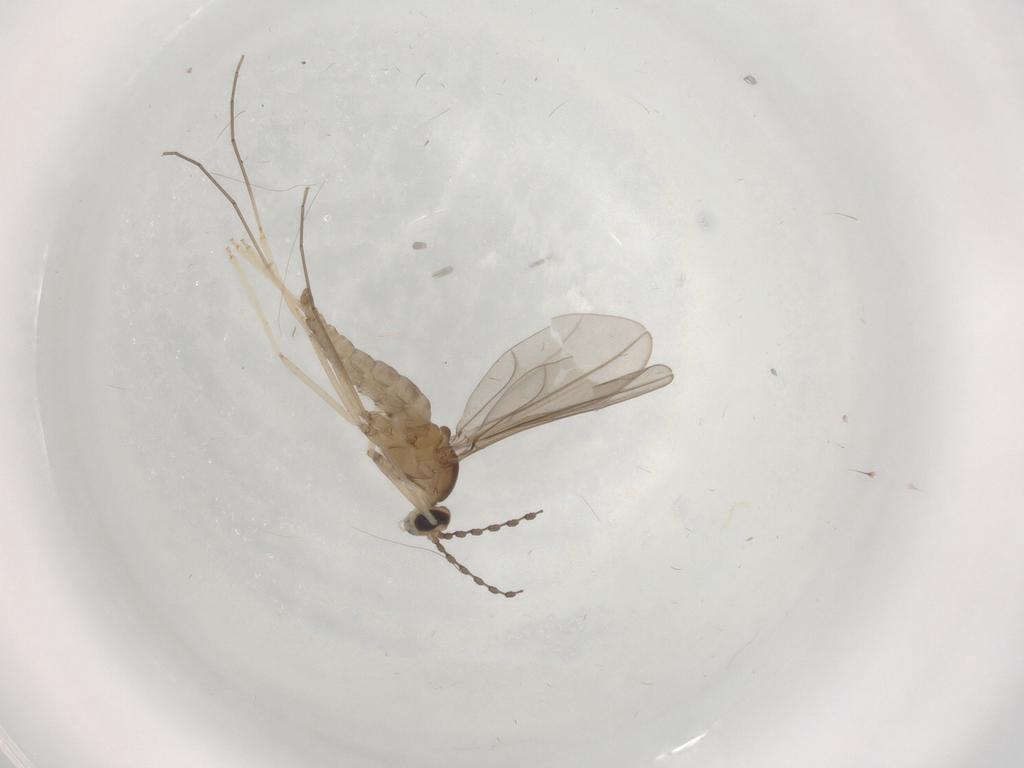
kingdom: Animalia
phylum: Arthropoda
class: Insecta
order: Diptera
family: Cecidomyiidae
